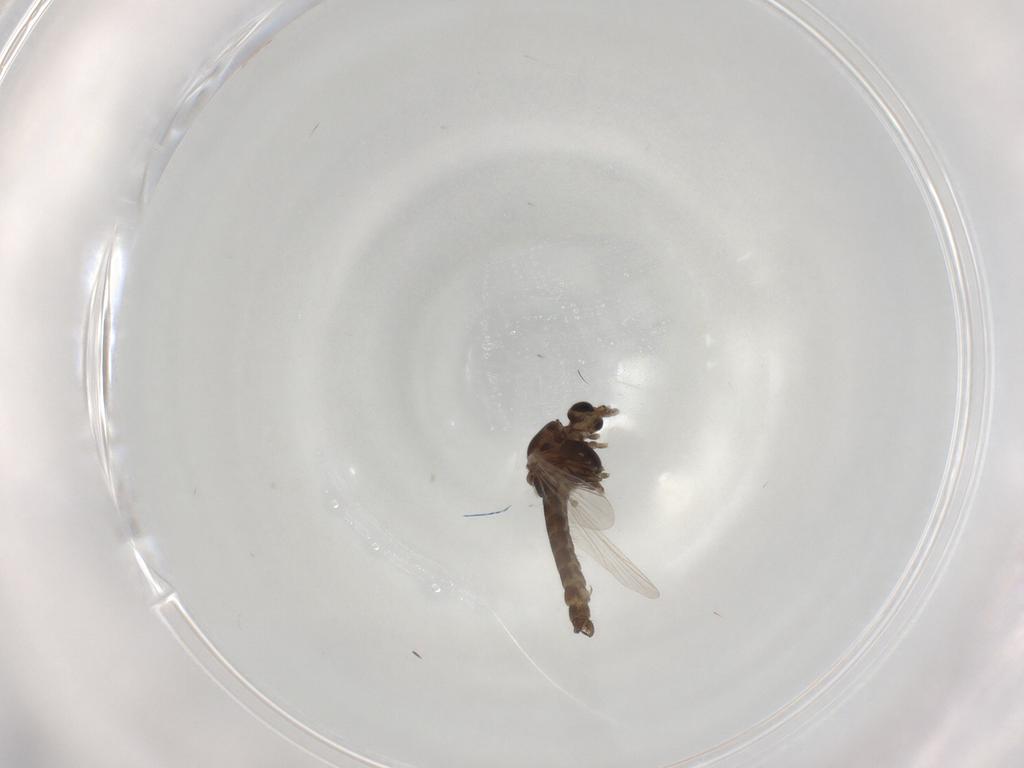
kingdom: Animalia
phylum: Arthropoda
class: Insecta
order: Diptera
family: Chironomidae
